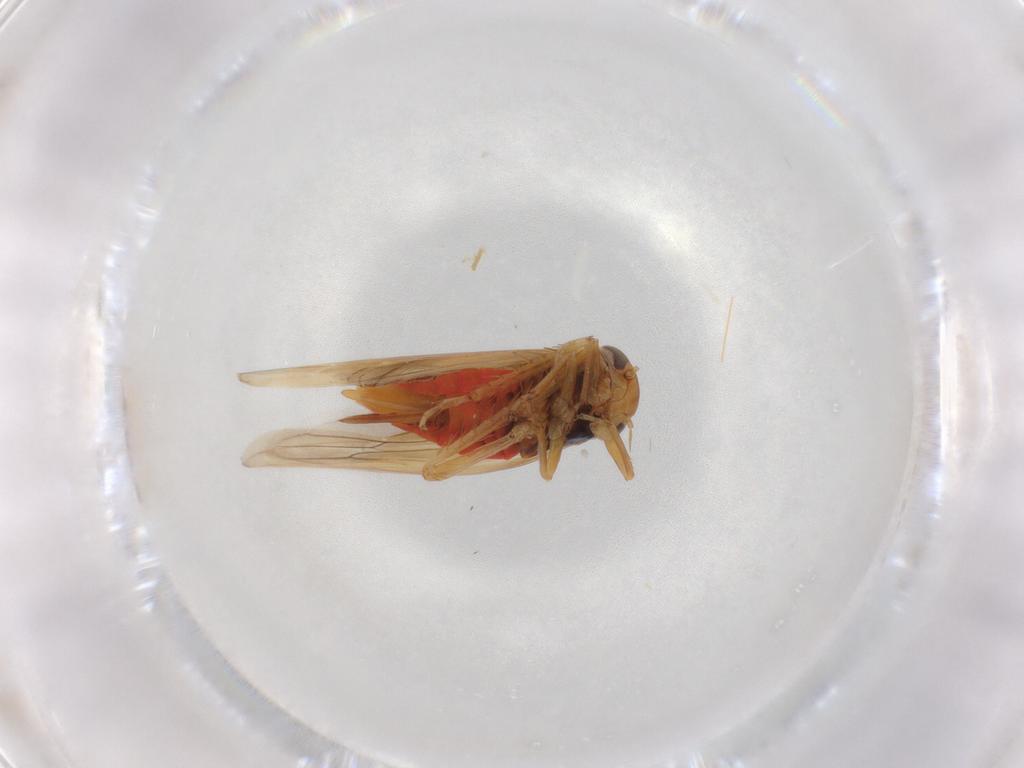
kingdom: Animalia
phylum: Arthropoda
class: Insecta
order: Hemiptera
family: Cicadellidae
